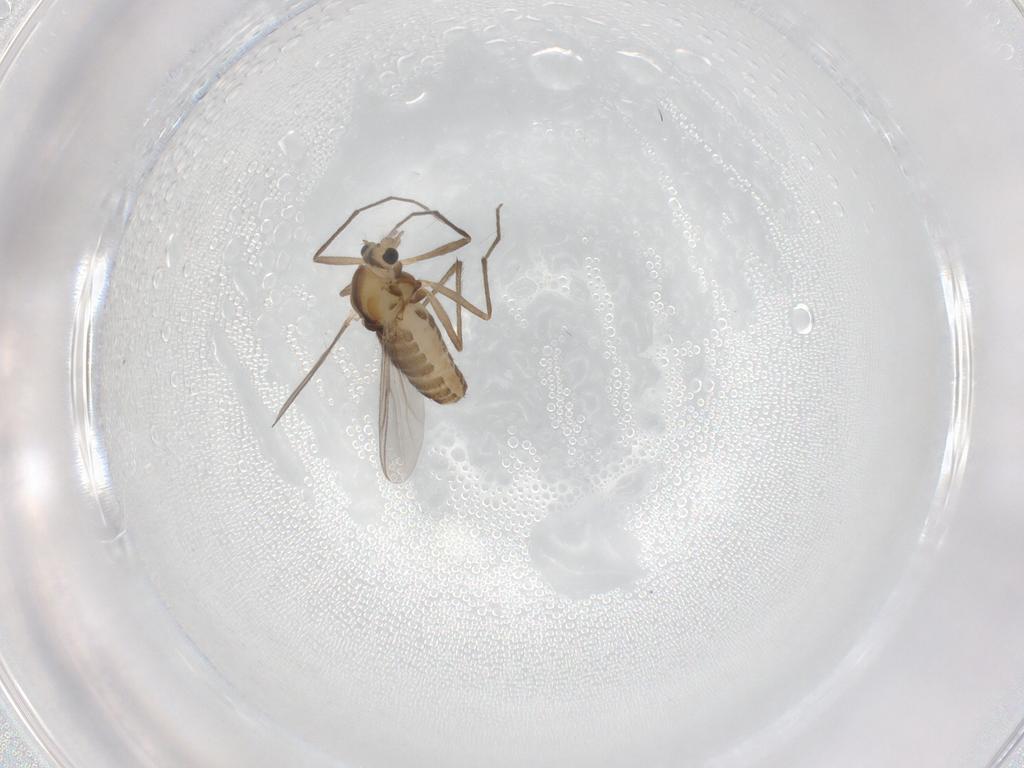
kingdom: Animalia
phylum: Arthropoda
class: Insecta
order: Diptera
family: Chironomidae
